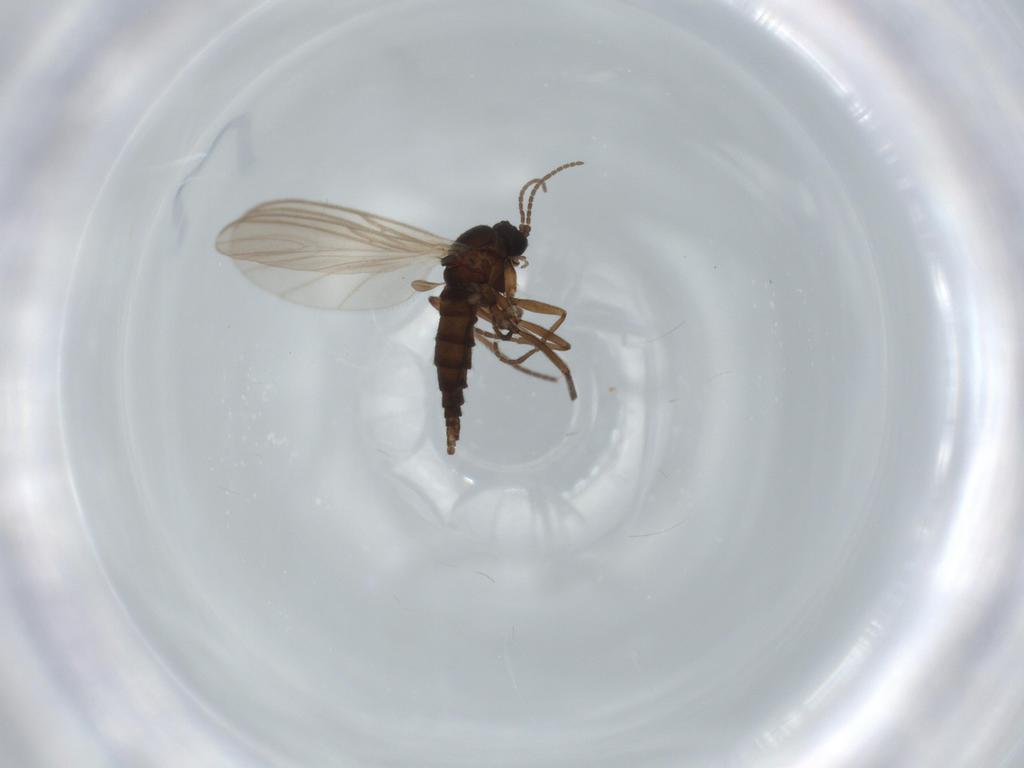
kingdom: Animalia
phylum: Arthropoda
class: Insecta
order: Diptera
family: Sciaridae
